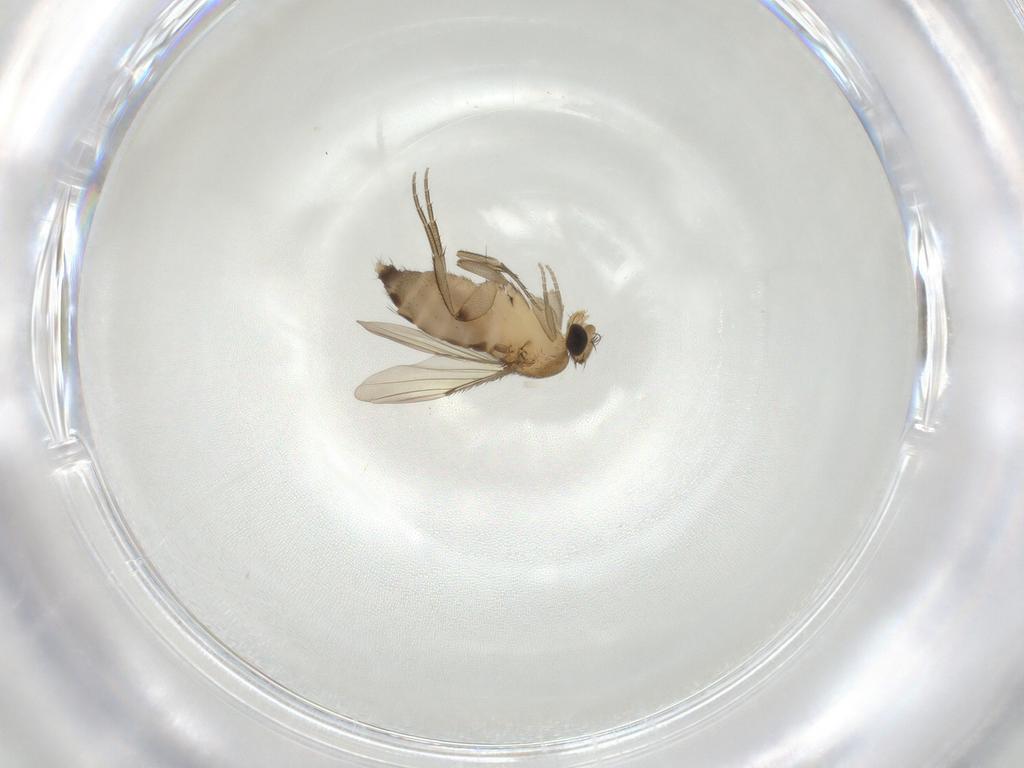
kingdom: Animalia
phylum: Arthropoda
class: Insecta
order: Diptera
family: Phoridae
